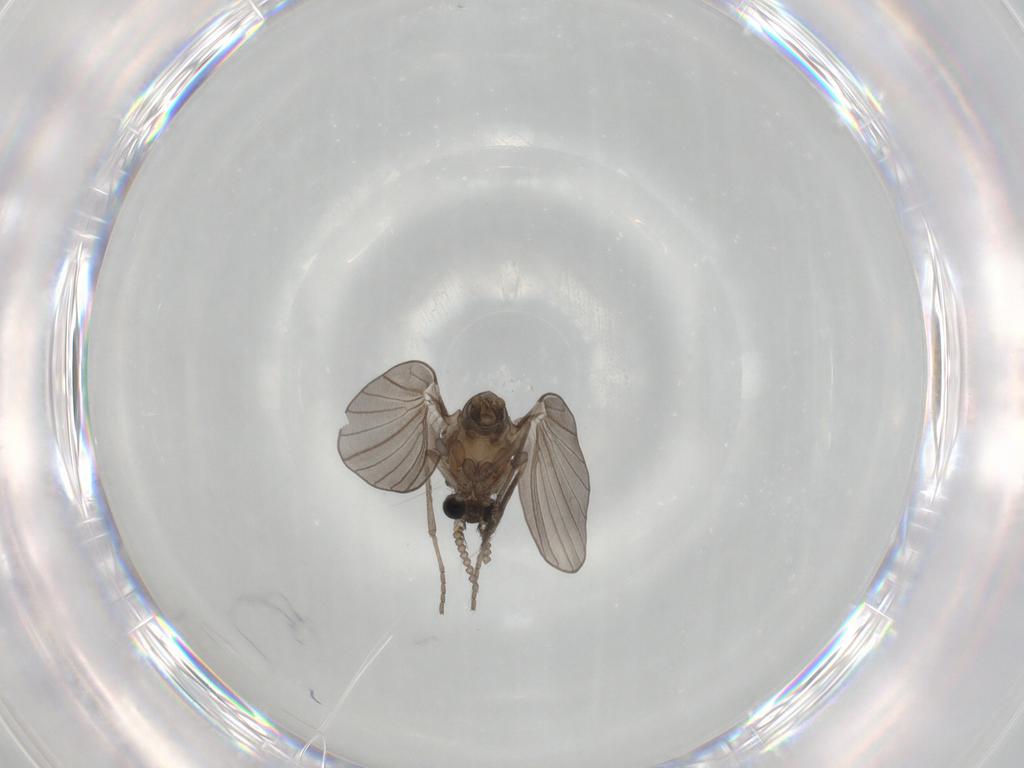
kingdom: Animalia
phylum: Arthropoda
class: Insecta
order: Diptera
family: Psychodidae
